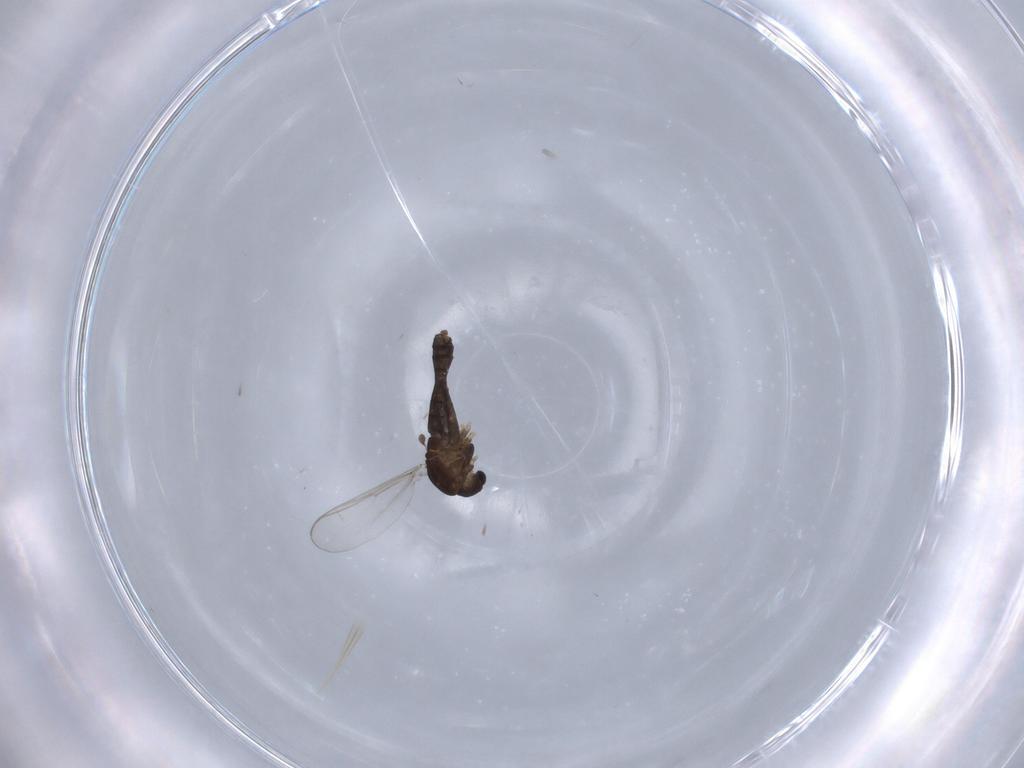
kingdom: Animalia
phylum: Arthropoda
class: Insecta
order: Diptera
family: Chironomidae
